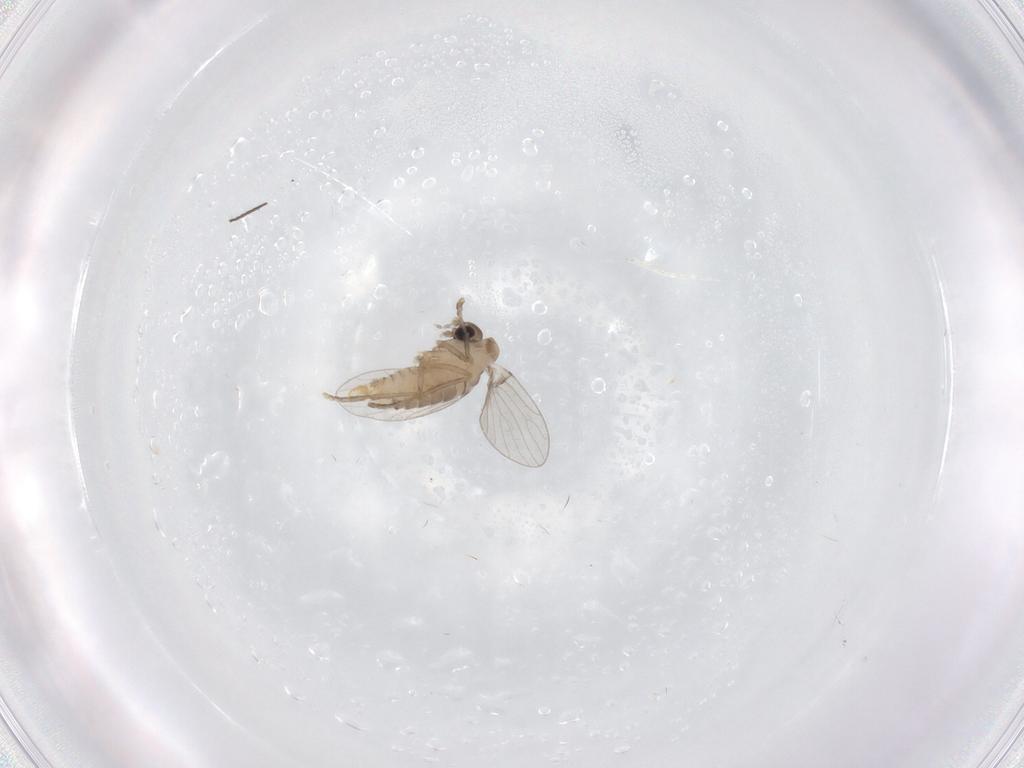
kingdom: Animalia
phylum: Arthropoda
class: Insecta
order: Diptera
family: Psychodidae
